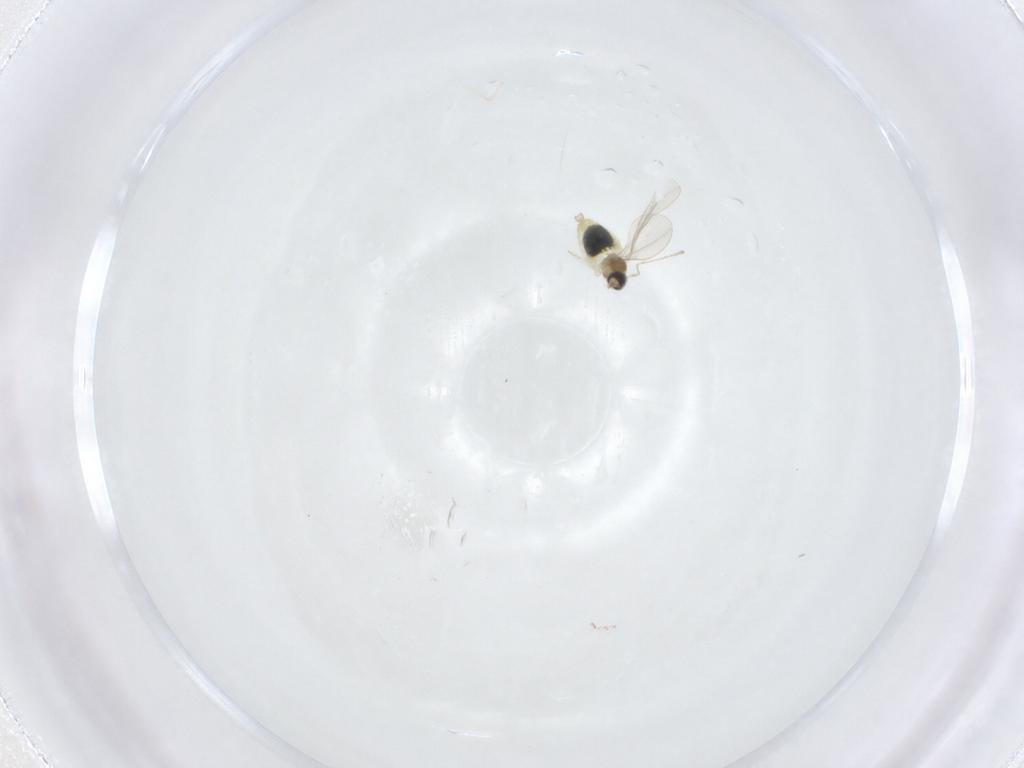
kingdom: Animalia
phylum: Arthropoda
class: Insecta
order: Diptera
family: Cecidomyiidae
